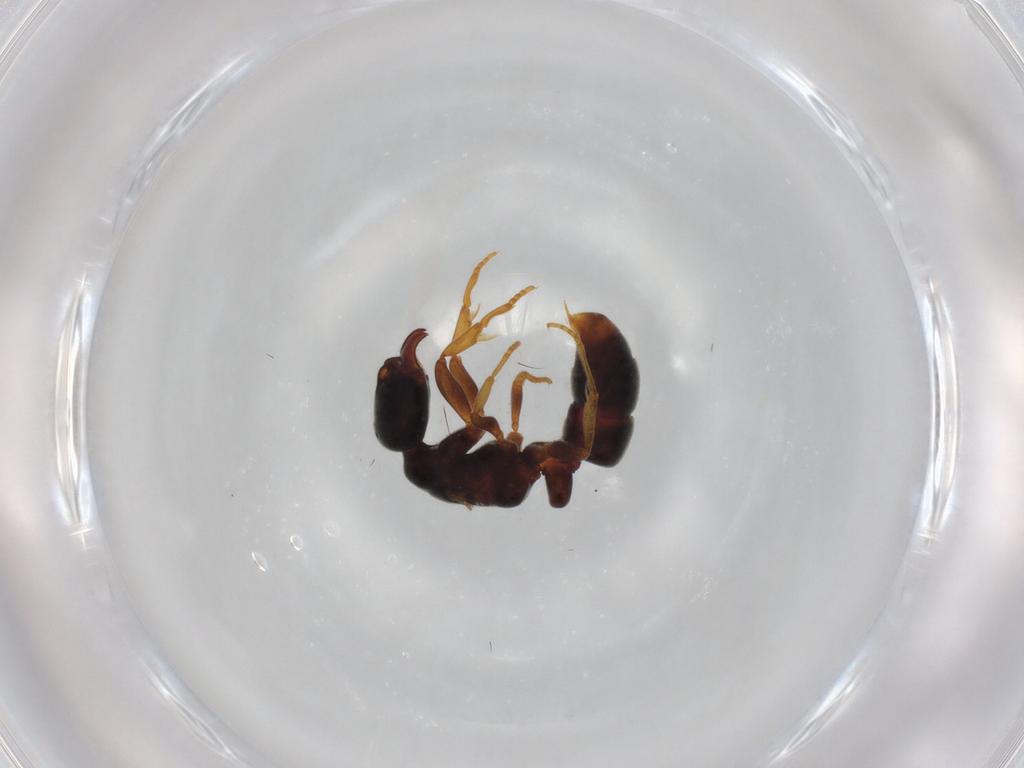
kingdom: Animalia
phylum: Arthropoda
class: Insecta
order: Hymenoptera
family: Formicidae
